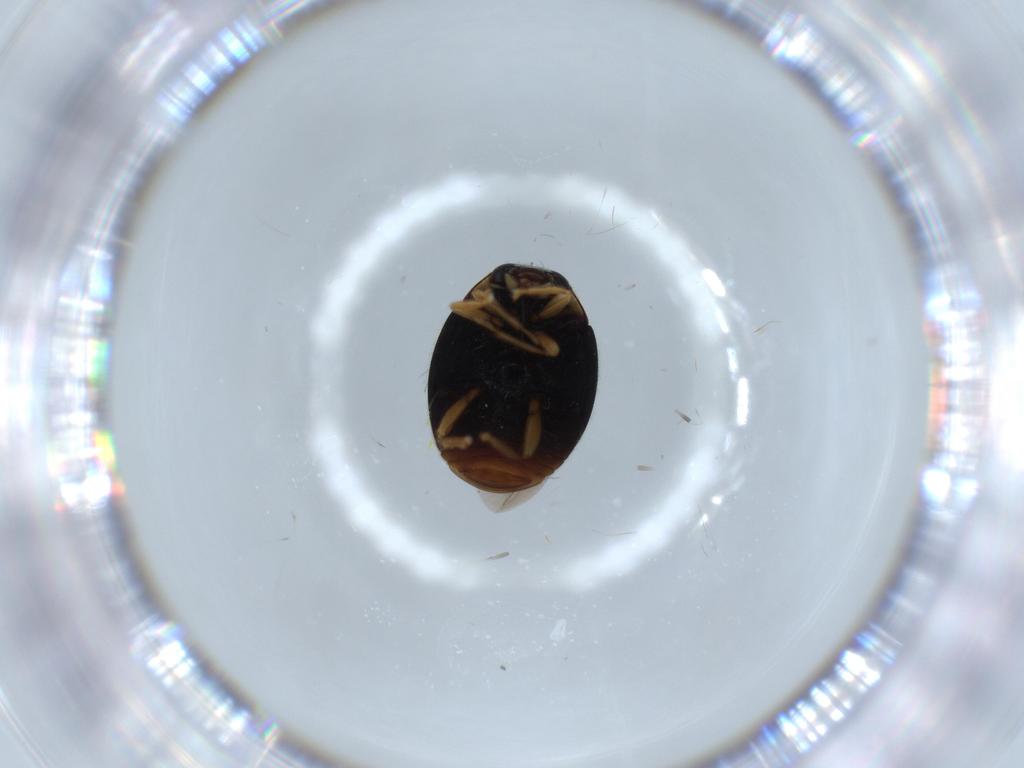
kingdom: Animalia
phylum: Arthropoda
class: Insecta
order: Coleoptera
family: Coccinellidae
